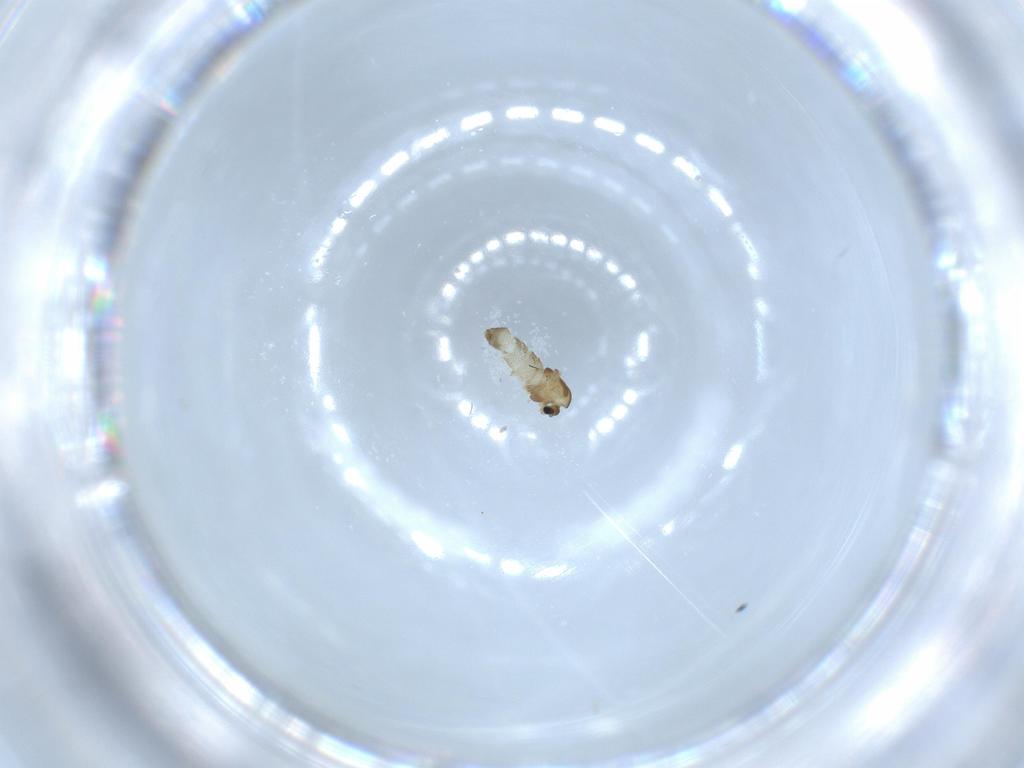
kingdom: Animalia
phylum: Arthropoda
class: Insecta
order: Diptera
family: Chironomidae
